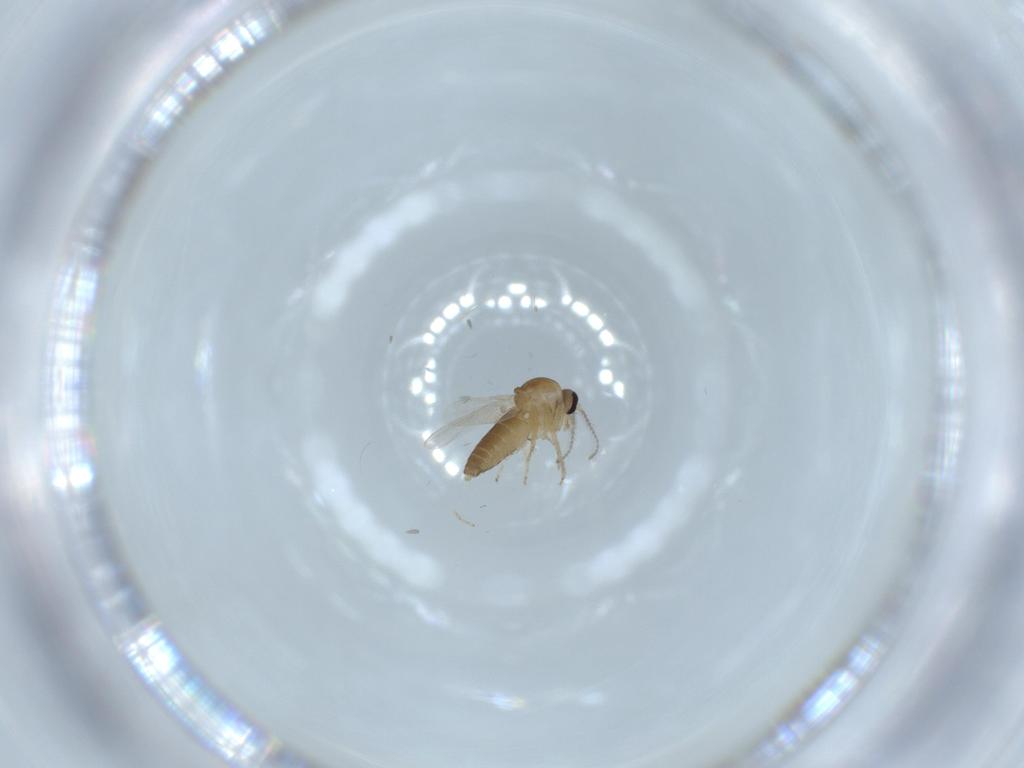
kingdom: Animalia
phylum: Arthropoda
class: Insecta
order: Diptera
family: Ceratopogonidae
